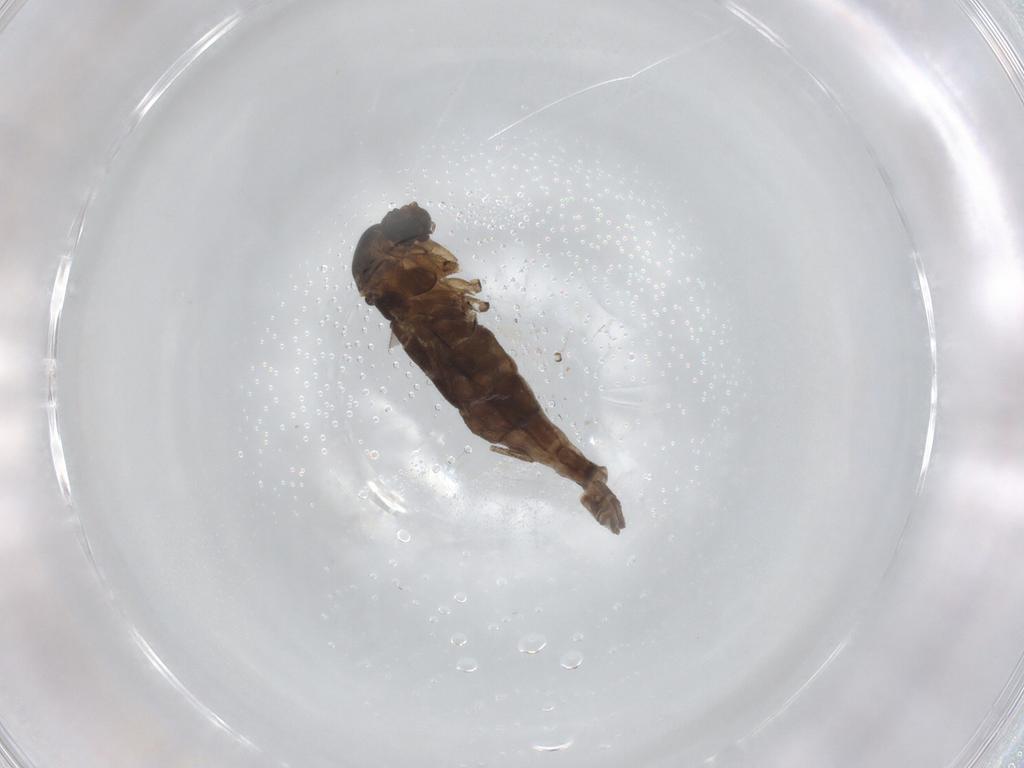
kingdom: Animalia
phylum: Arthropoda
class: Insecta
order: Diptera
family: Sciaridae
